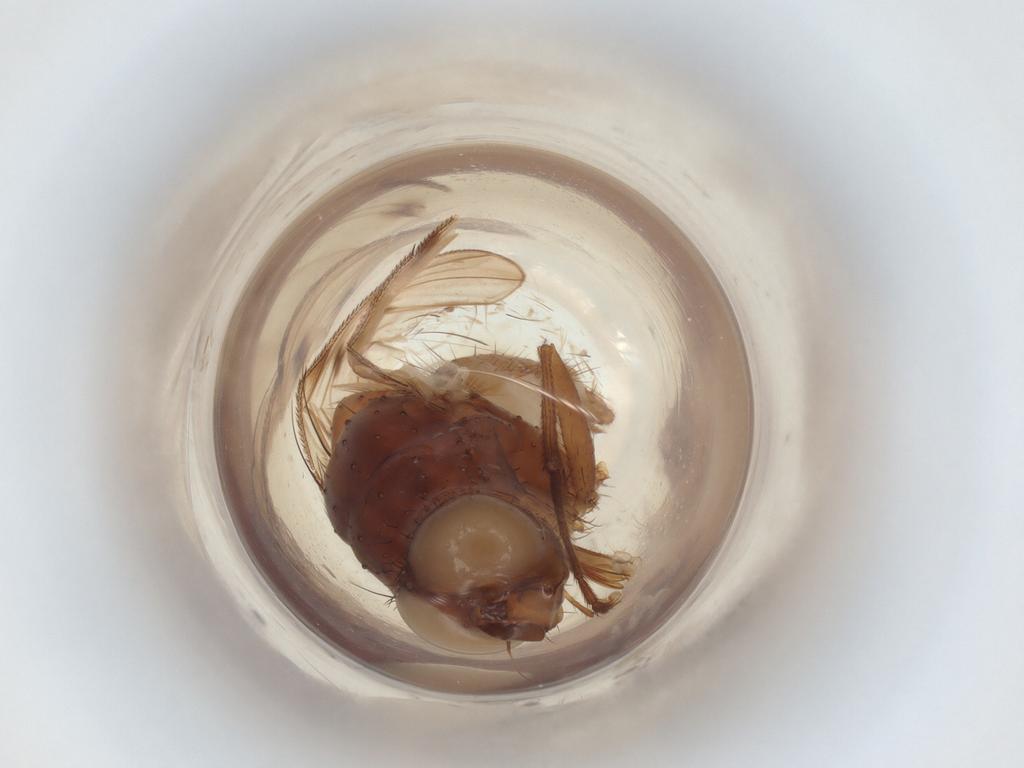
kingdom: Animalia
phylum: Arthropoda
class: Insecta
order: Diptera
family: Anthomyiidae
